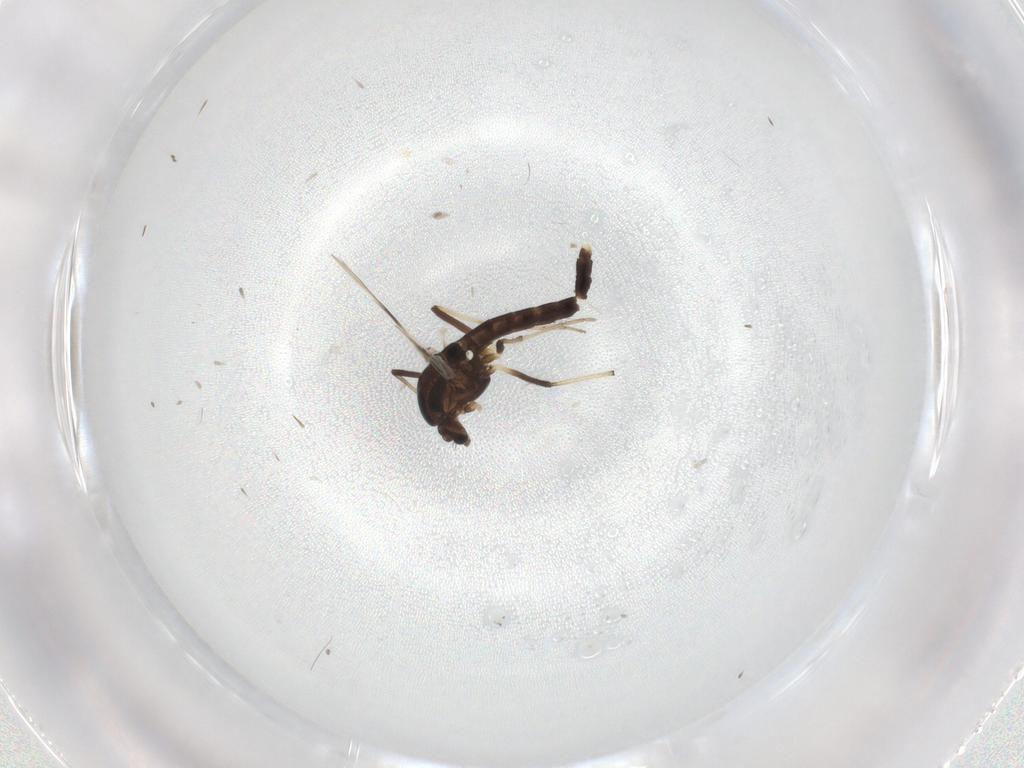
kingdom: Animalia
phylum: Arthropoda
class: Insecta
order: Diptera
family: Chironomidae
